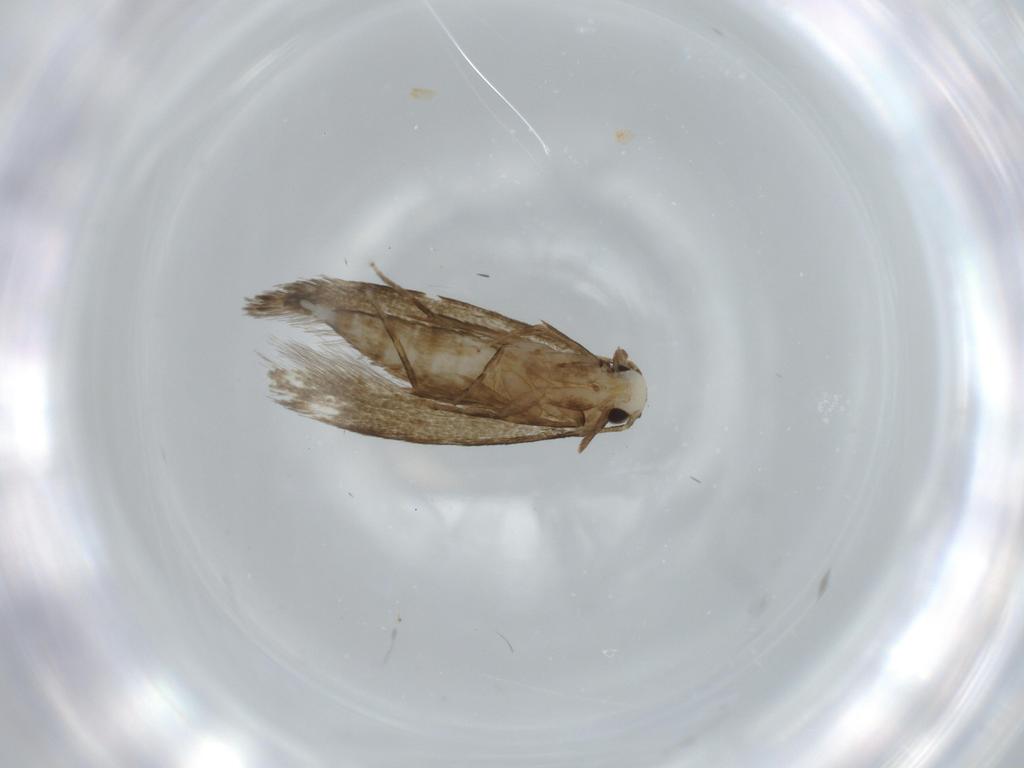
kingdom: Animalia
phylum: Arthropoda
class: Insecta
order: Lepidoptera
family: Tineidae
